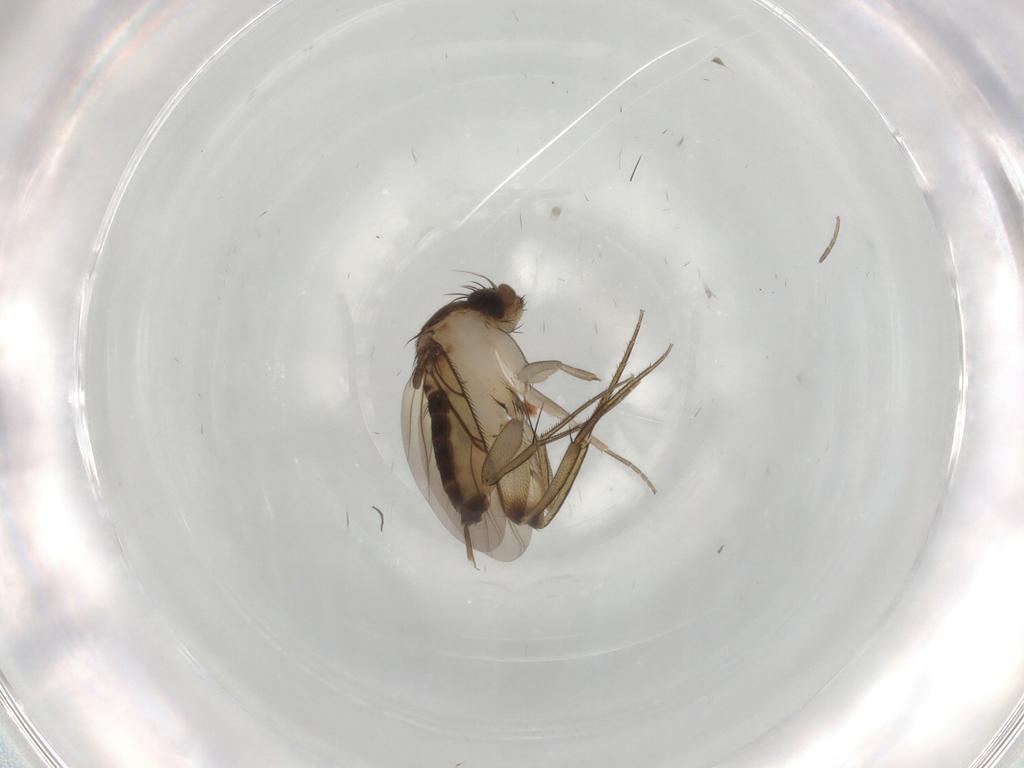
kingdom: Animalia
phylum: Arthropoda
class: Insecta
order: Diptera
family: Phoridae
